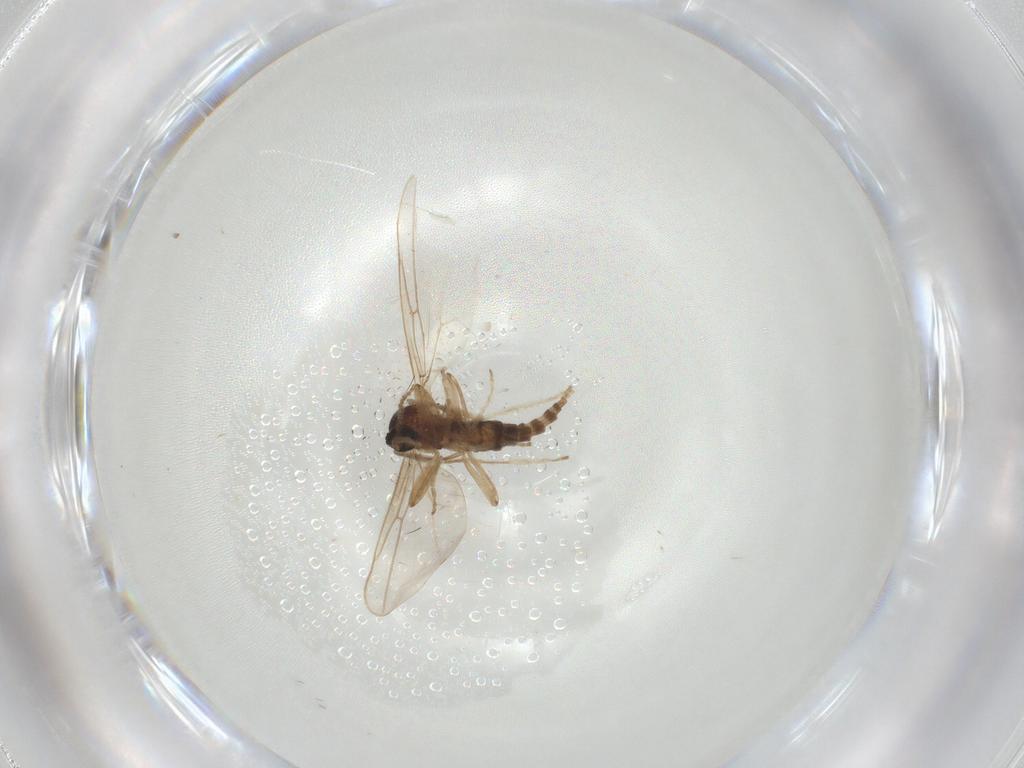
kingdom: Animalia
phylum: Arthropoda
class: Insecta
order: Diptera
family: Cecidomyiidae
